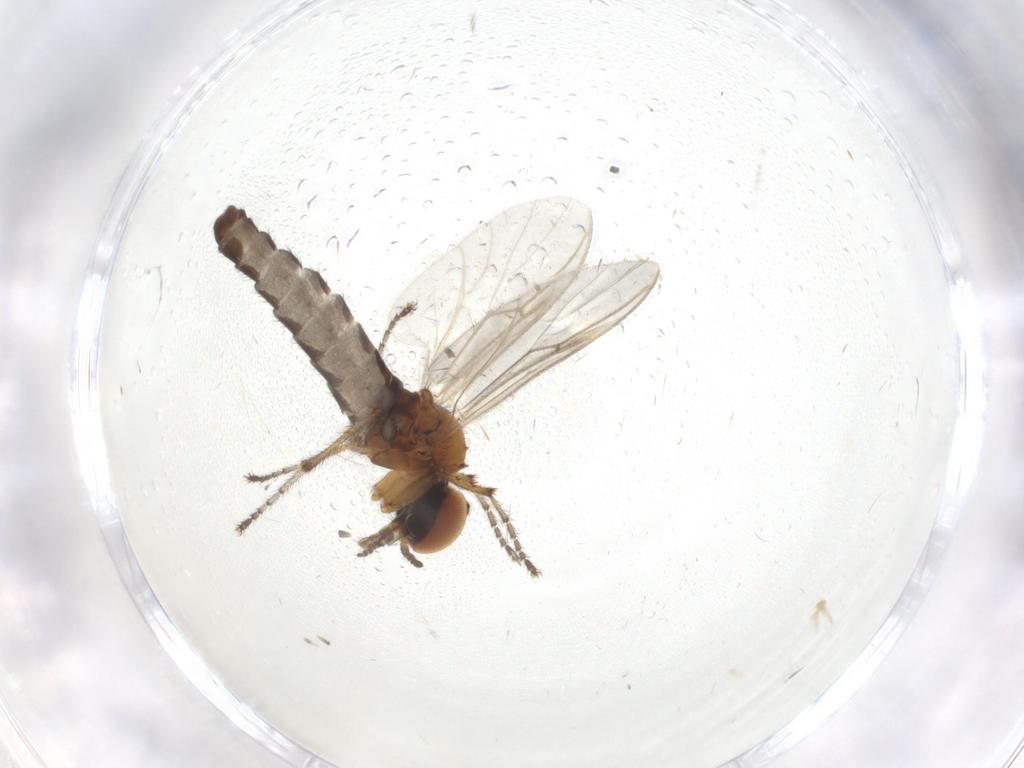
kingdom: Animalia
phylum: Arthropoda
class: Insecta
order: Diptera
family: Bibionidae
